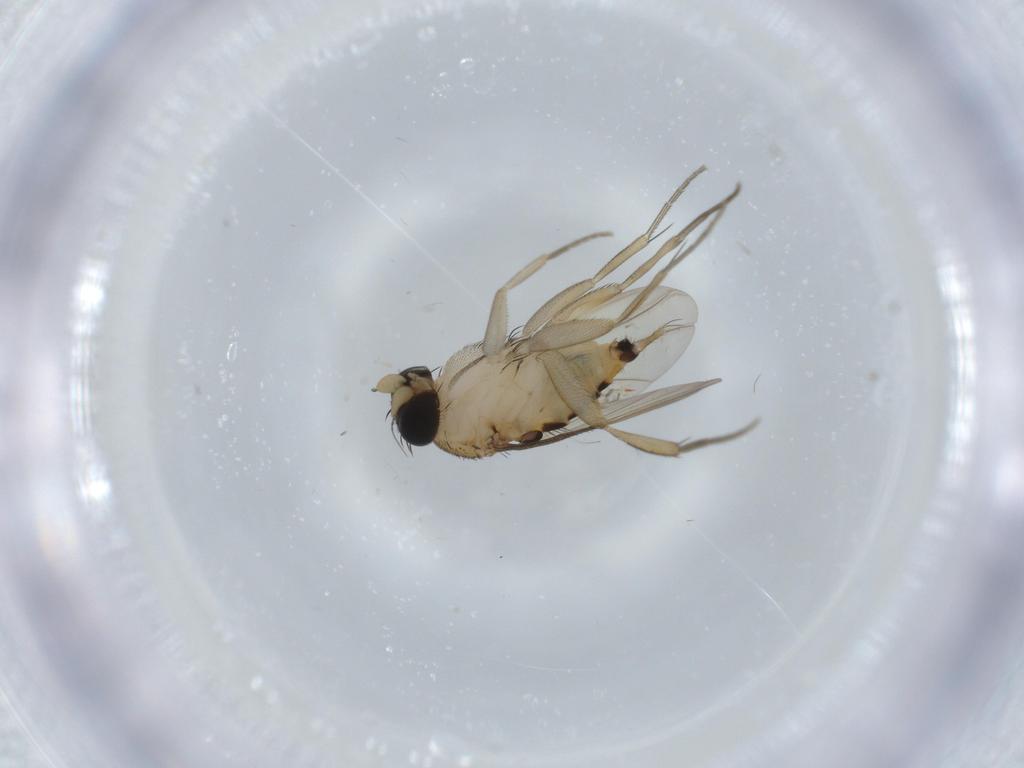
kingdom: Animalia
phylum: Arthropoda
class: Insecta
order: Diptera
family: Phoridae
